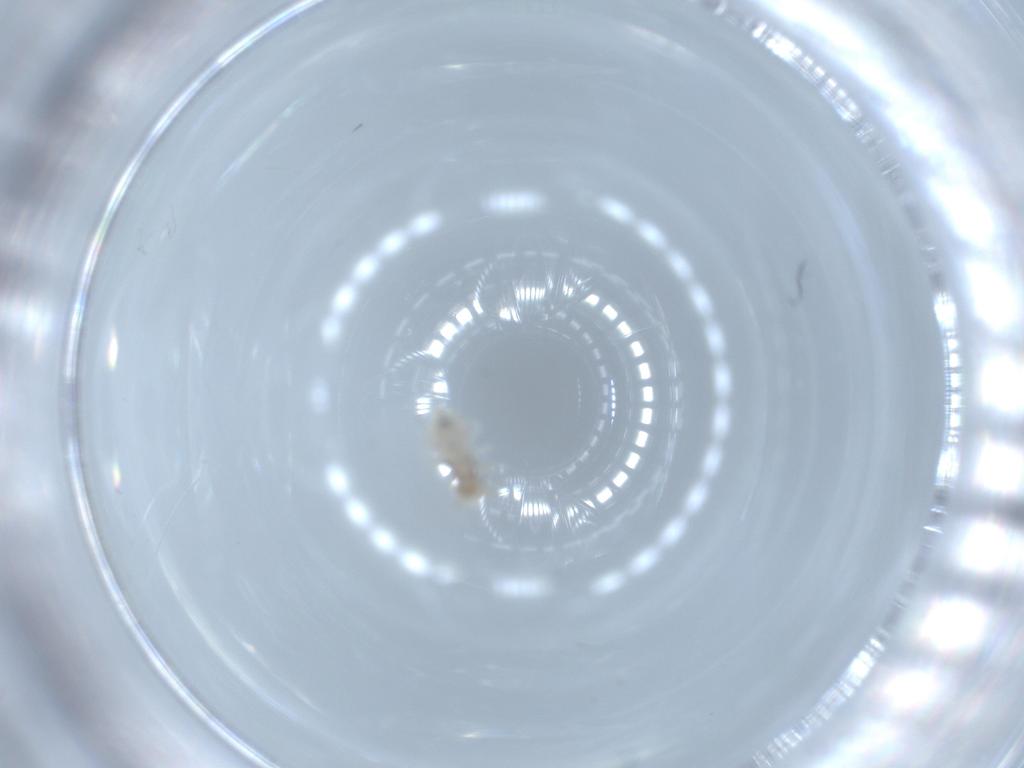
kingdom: Animalia
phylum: Arthropoda
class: Insecta
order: Psocodea
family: Caeciliusidae
